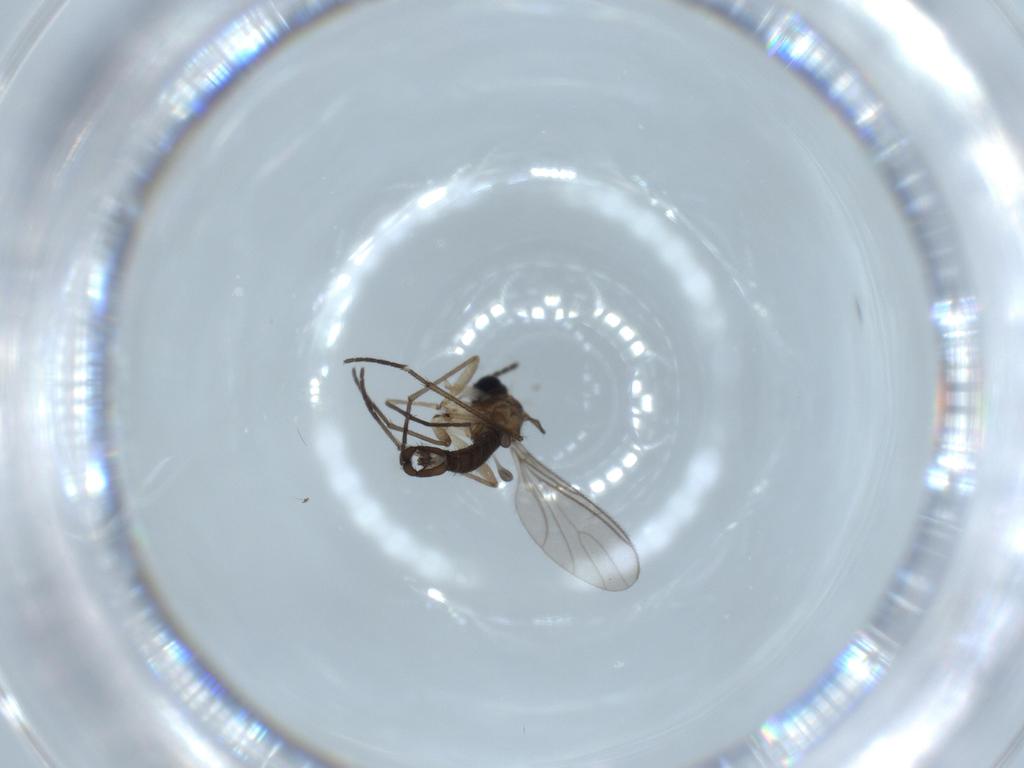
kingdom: Animalia
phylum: Arthropoda
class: Insecta
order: Diptera
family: Sciaridae
